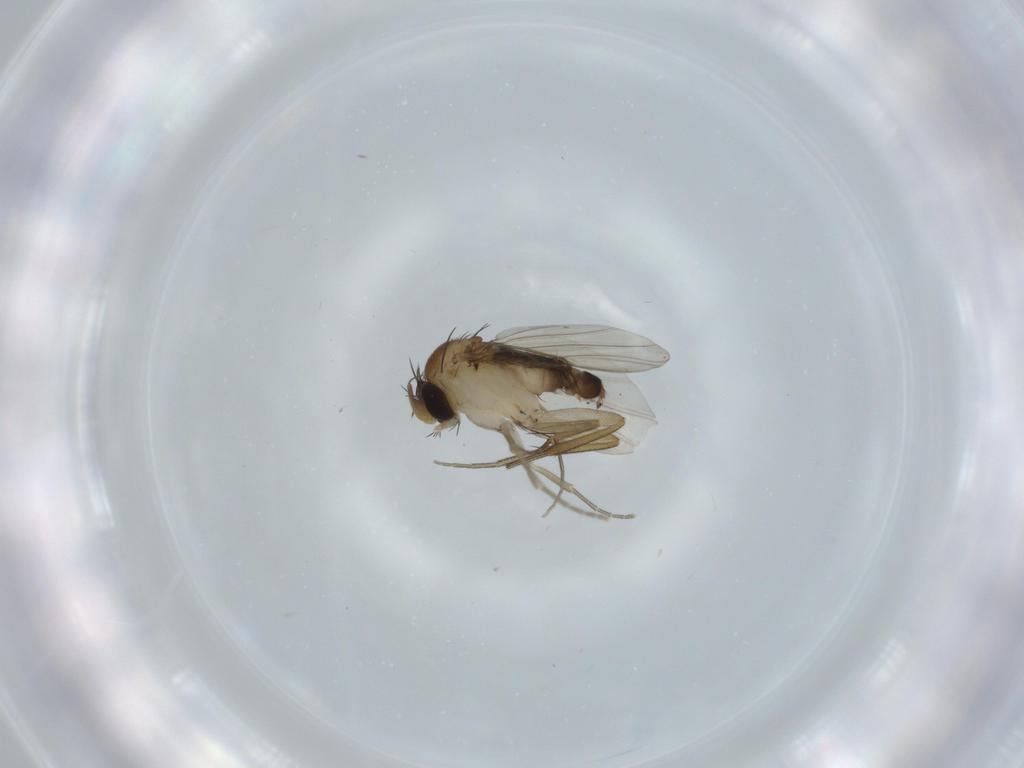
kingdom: Animalia
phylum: Arthropoda
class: Insecta
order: Diptera
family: Phoridae
